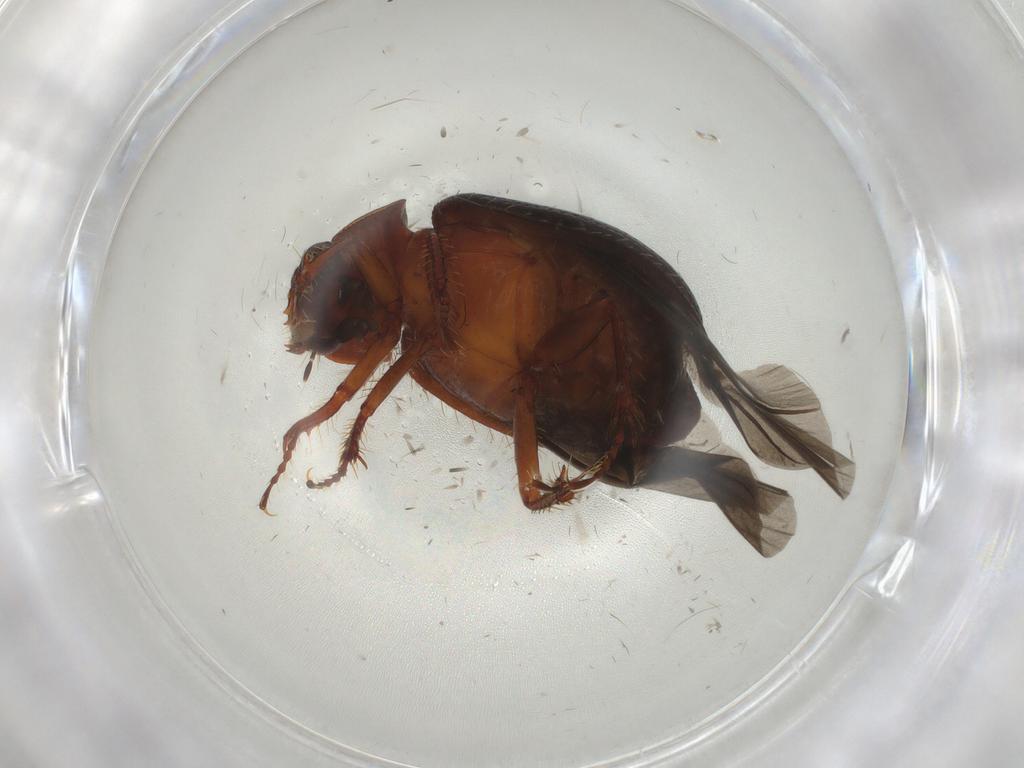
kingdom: Animalia
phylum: Arthropoda
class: Insecta
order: Coleoptera
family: Hybosoridae
